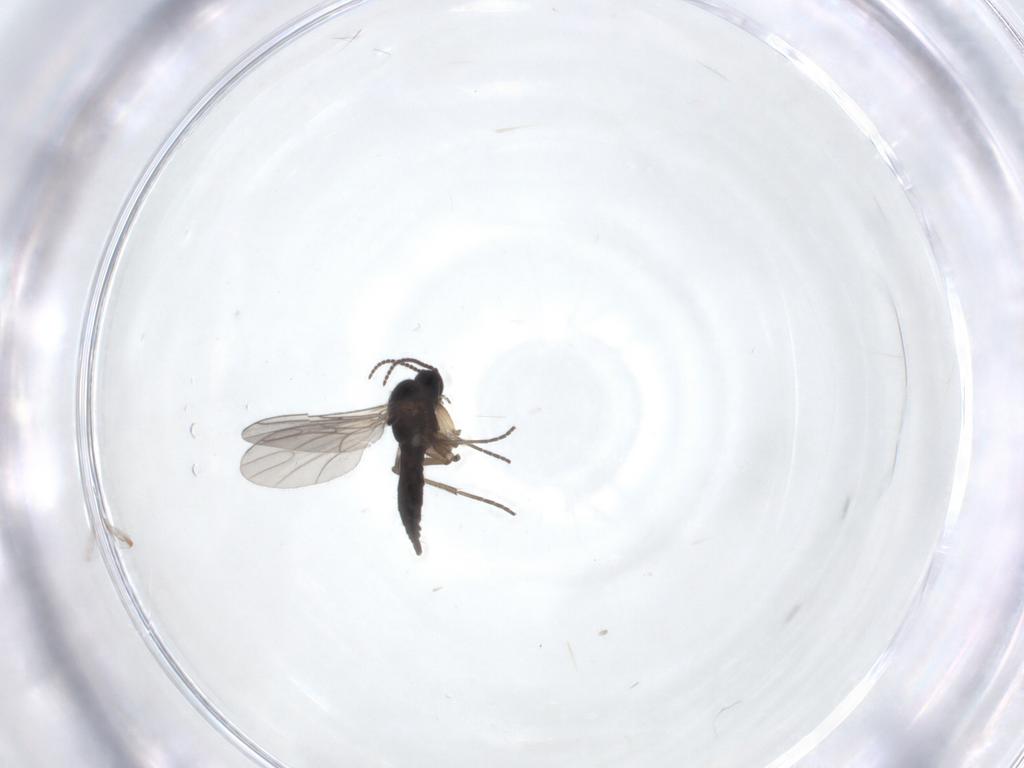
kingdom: Animalia
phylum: Arthropoda
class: Insecta
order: Diptera
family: Sciaridae
